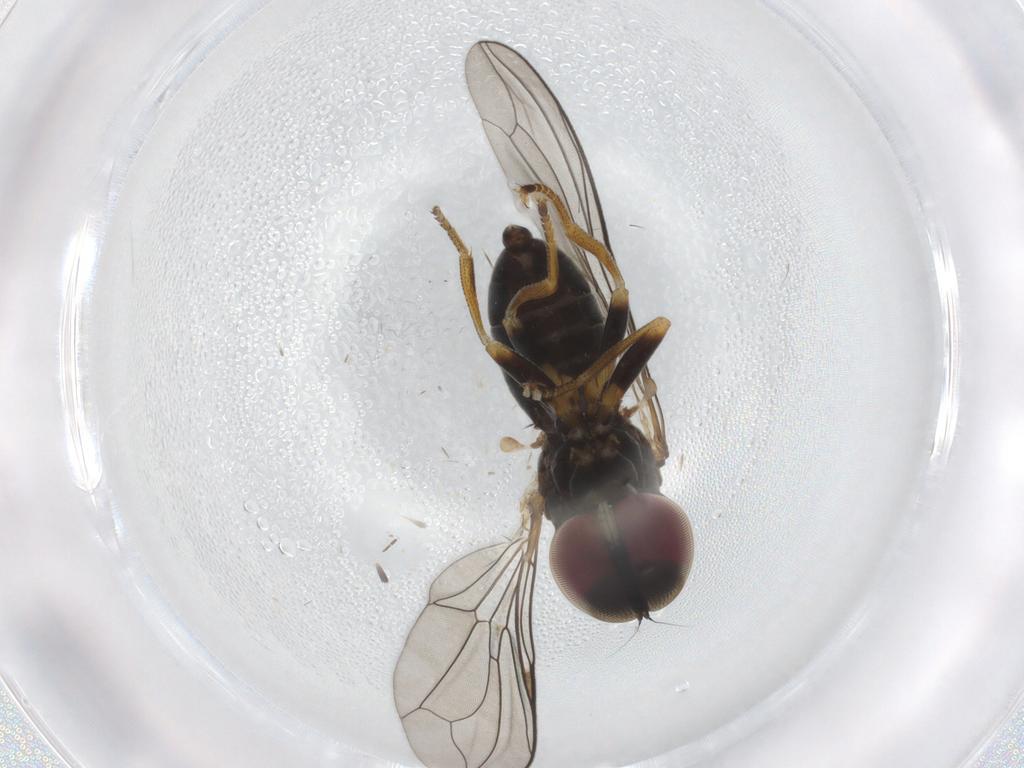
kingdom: Animalia
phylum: Arthropoda
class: Insecta
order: Diptera
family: Pipunculidae
